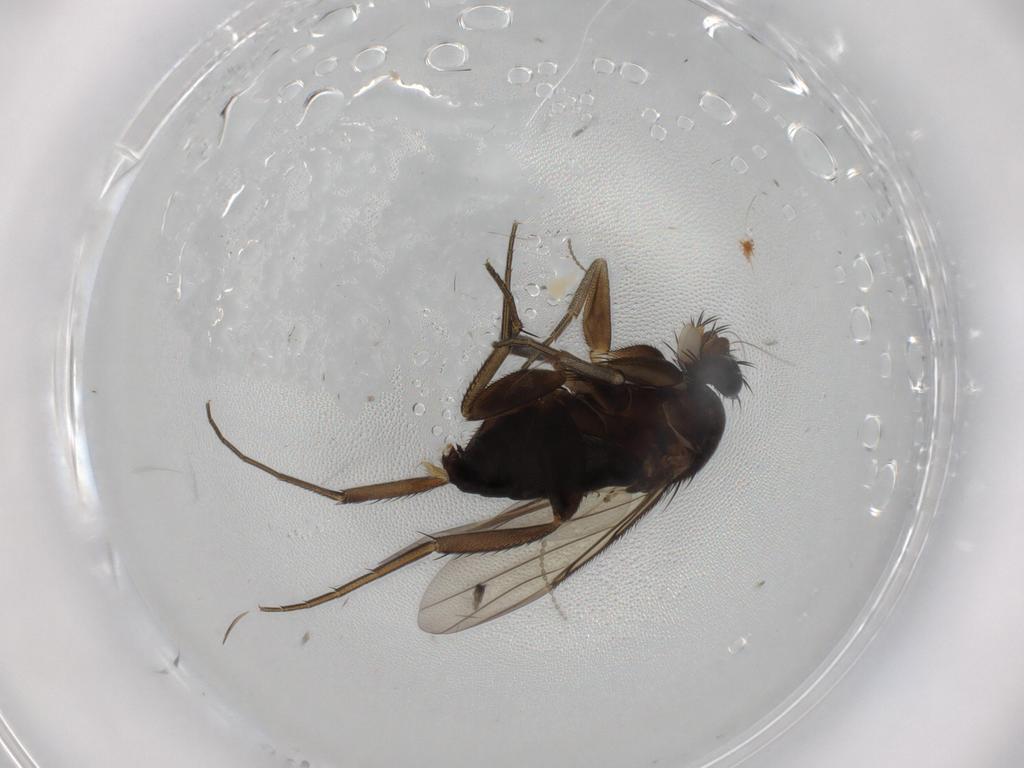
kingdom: Animalia
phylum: Arthropoda
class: Insecta
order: Diptera
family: Phoridae
